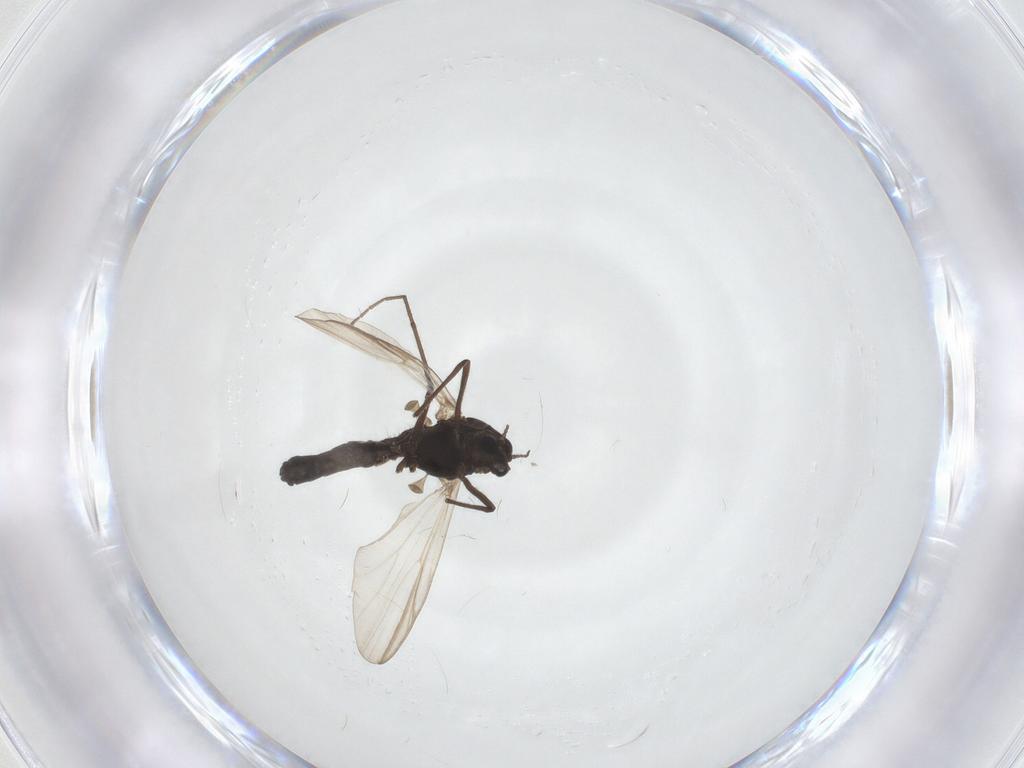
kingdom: Animalia
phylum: Arthropoda
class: Insecta
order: Diptera
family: Chironomidae
